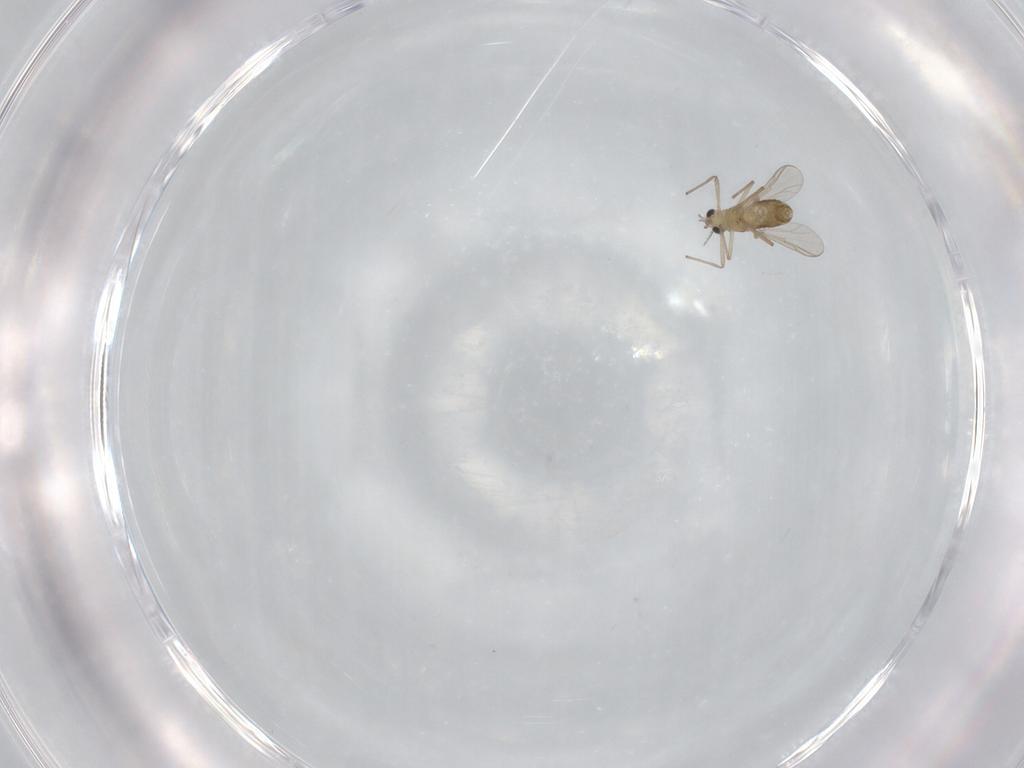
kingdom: Animalia
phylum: Arthropoda
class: Insecta
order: Diptera
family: Chironomidae
